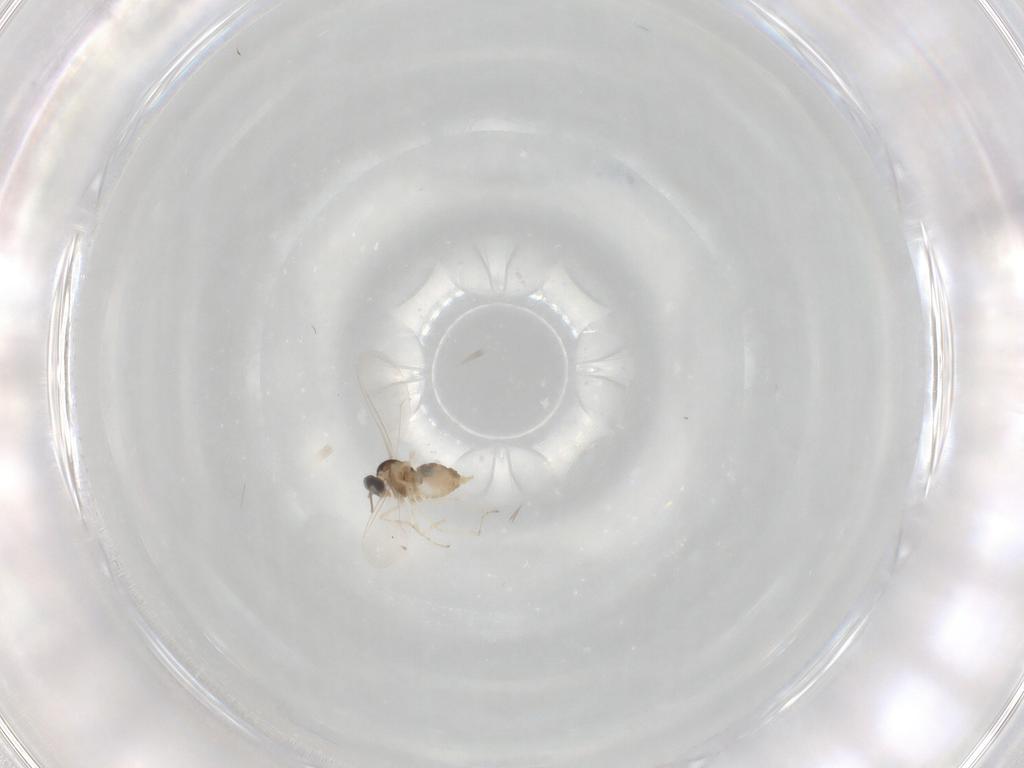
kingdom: Animalia
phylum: Arthropoda
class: Insecta
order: Diptera
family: Cecidomyiidae
